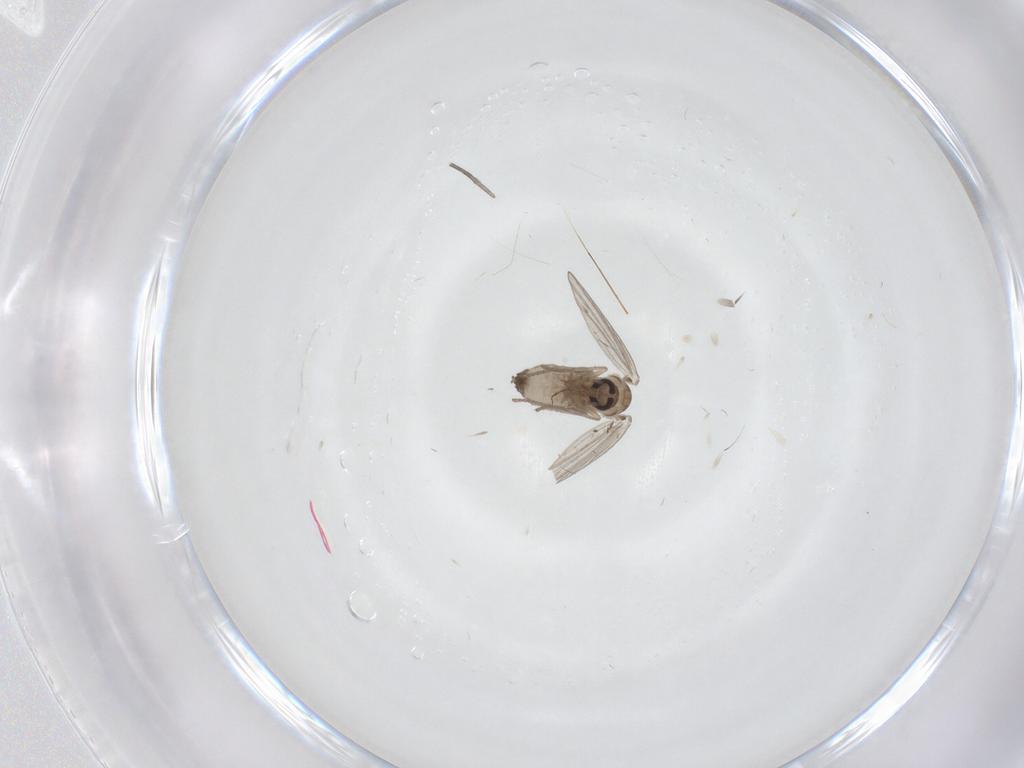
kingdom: Animalia
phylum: Arthropoda
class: Insecta
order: Diptera
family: Psychodidae
